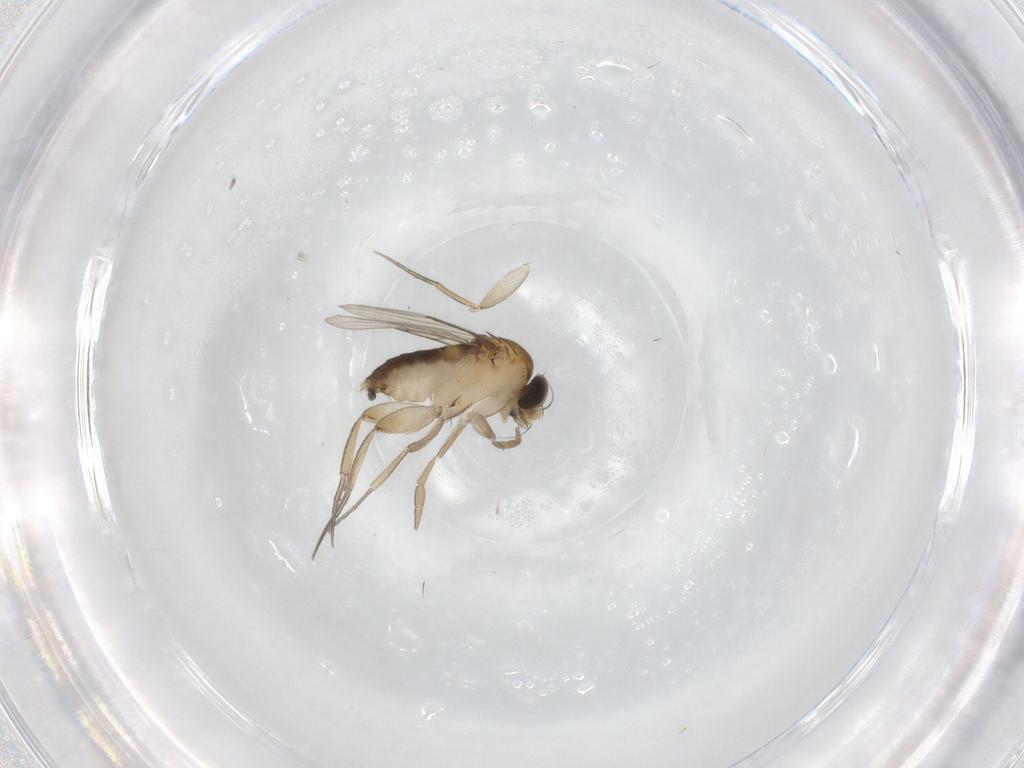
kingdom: Animalia
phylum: Arthropoda
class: Insecta
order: Diptera
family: Phoridae
